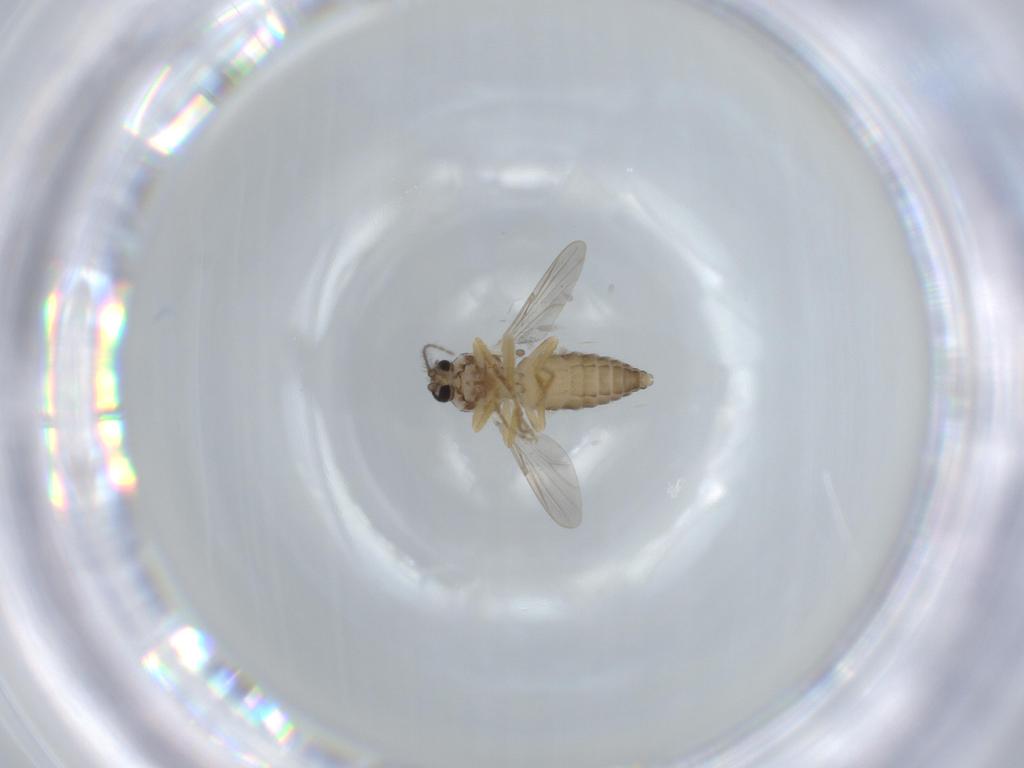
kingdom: Animalia
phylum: Arthropoda
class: Insecta
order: Diptera
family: Ceratopogonidae
